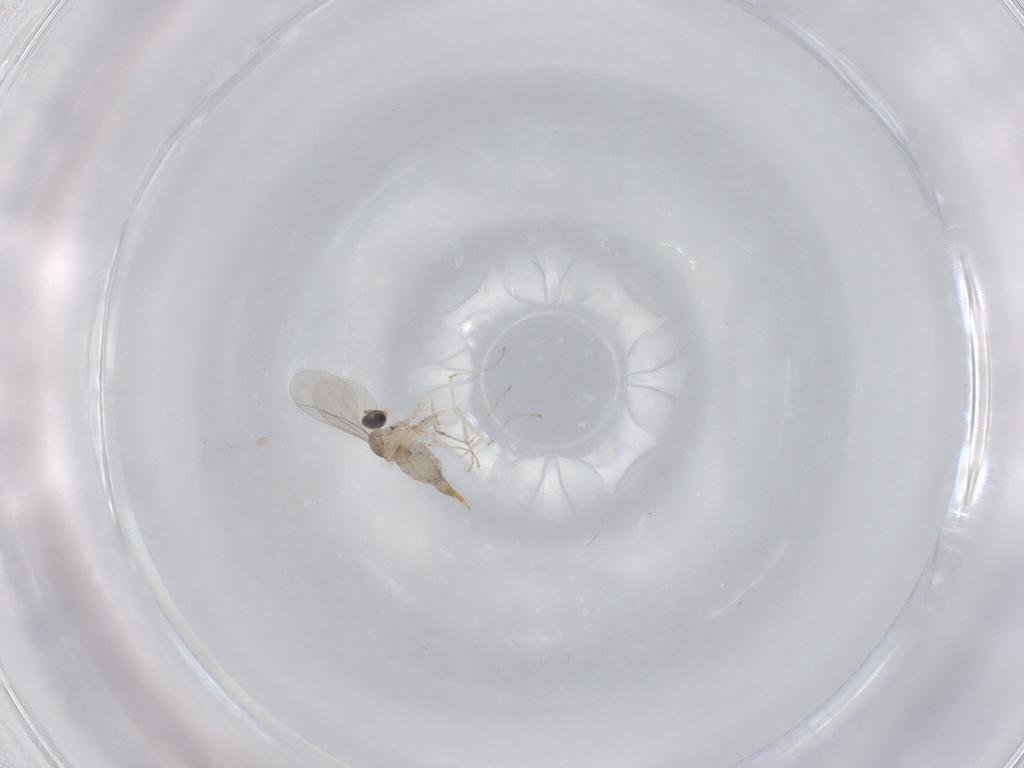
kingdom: Animalia
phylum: Arthropoda
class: Insecta
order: Diptera
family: Cecidomyiidae
